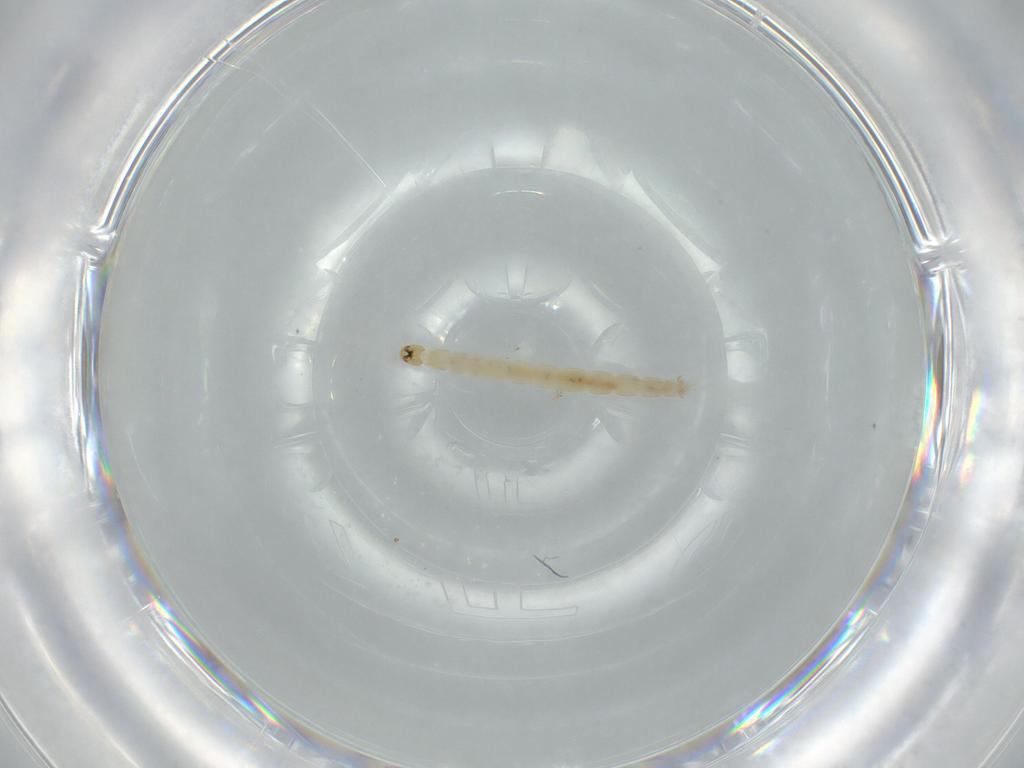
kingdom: Animalia
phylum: Arthropoda
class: Insecta
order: Diptera
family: Chironomidae
